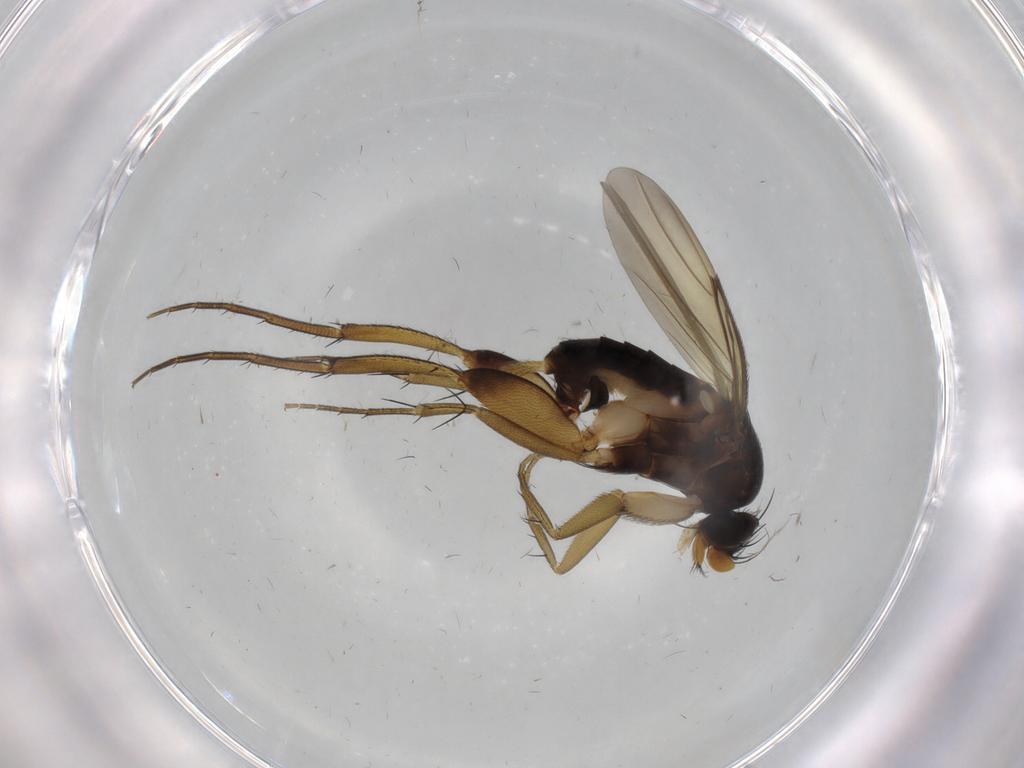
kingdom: Animalia
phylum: Arthropoda
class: Insecta
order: Diptera
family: Phoridae
